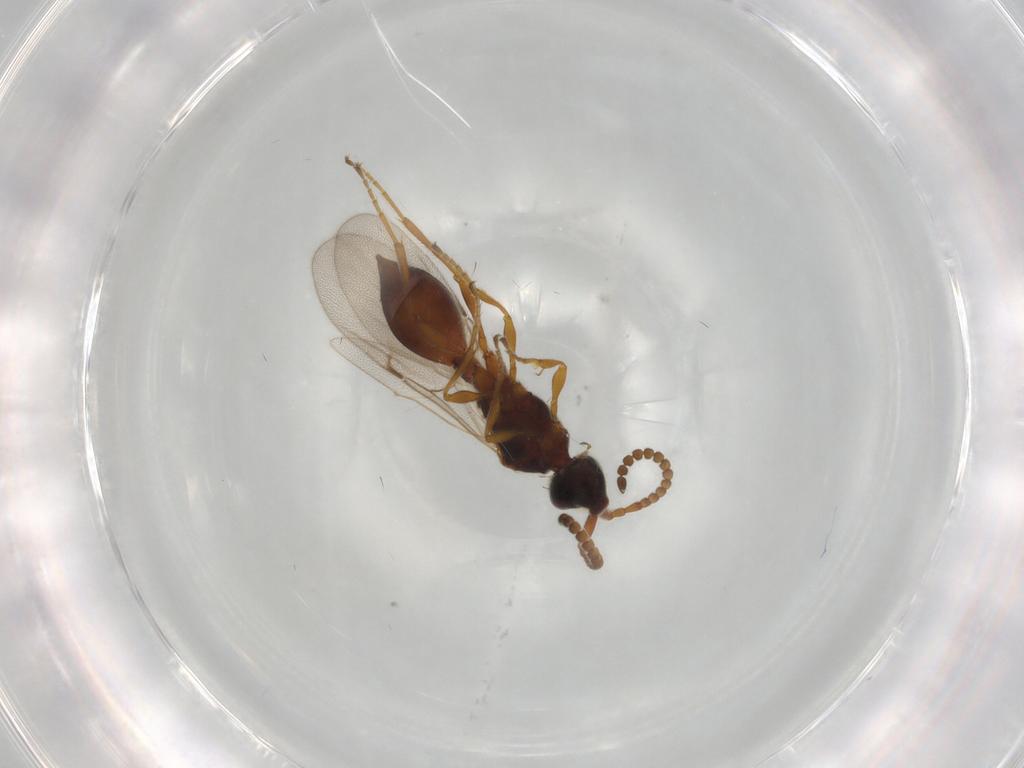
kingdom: Animalia
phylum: Arthropoda
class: Insecta
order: Hymenoptera
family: Diapriidae
